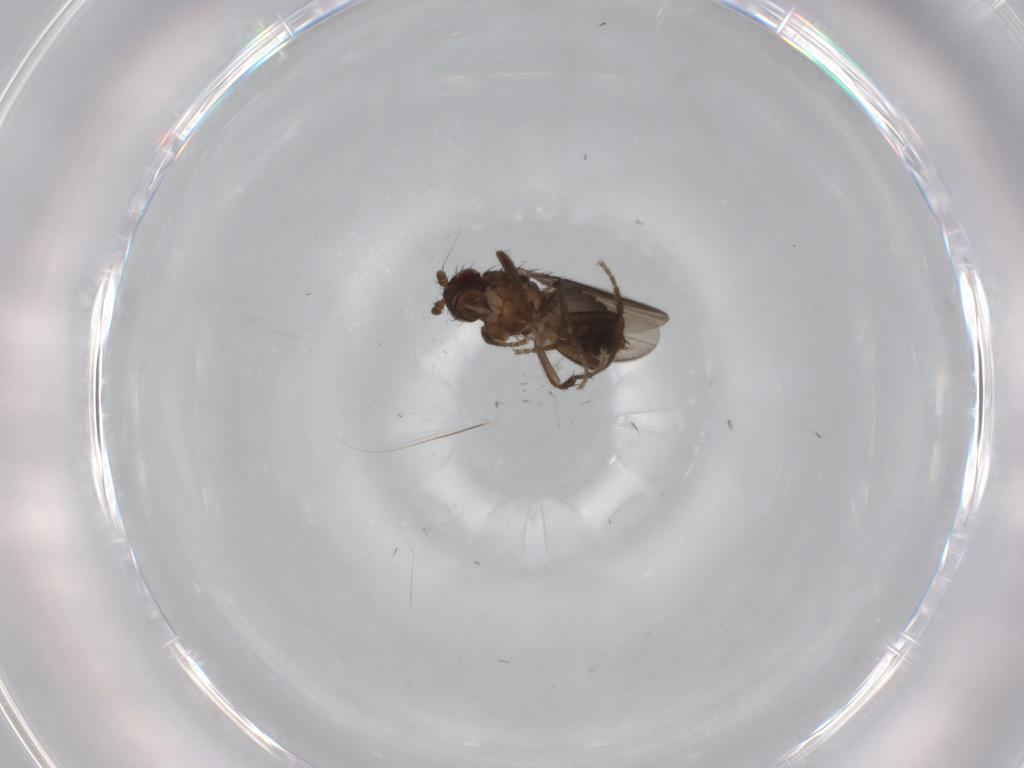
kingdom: Animalia
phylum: Arthropoda
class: Insecta
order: Diptera
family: Cecidomyiidae
